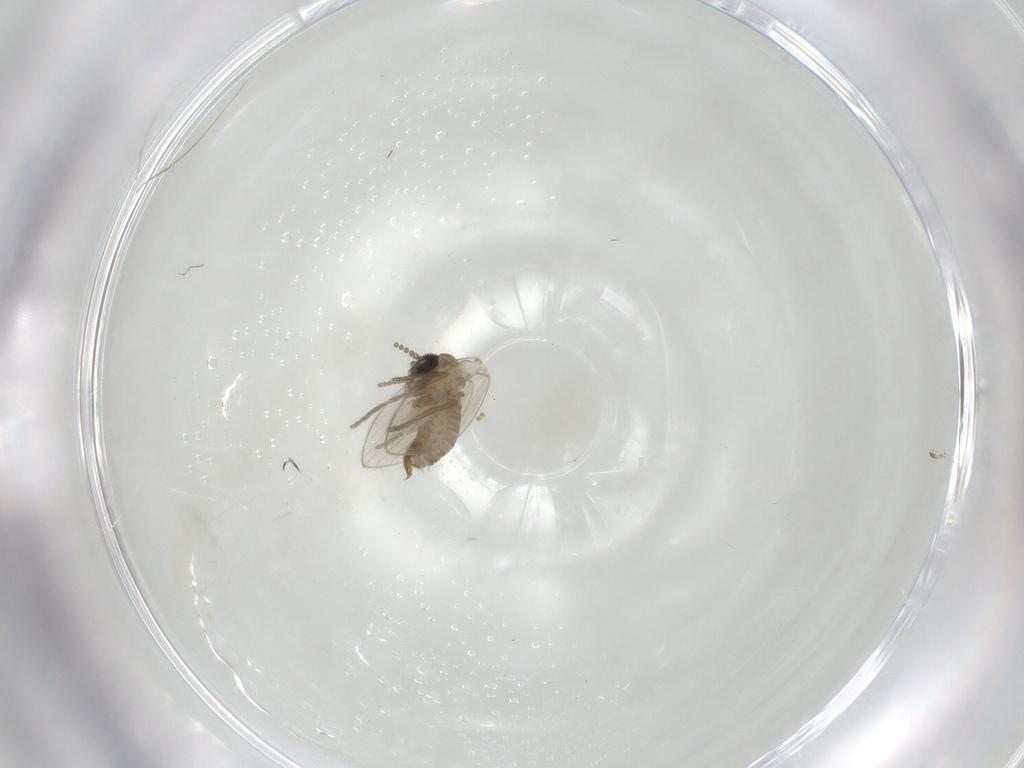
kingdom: Animalia
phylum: Arthropoda
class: Insecta
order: Diptera
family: Psychodidae
